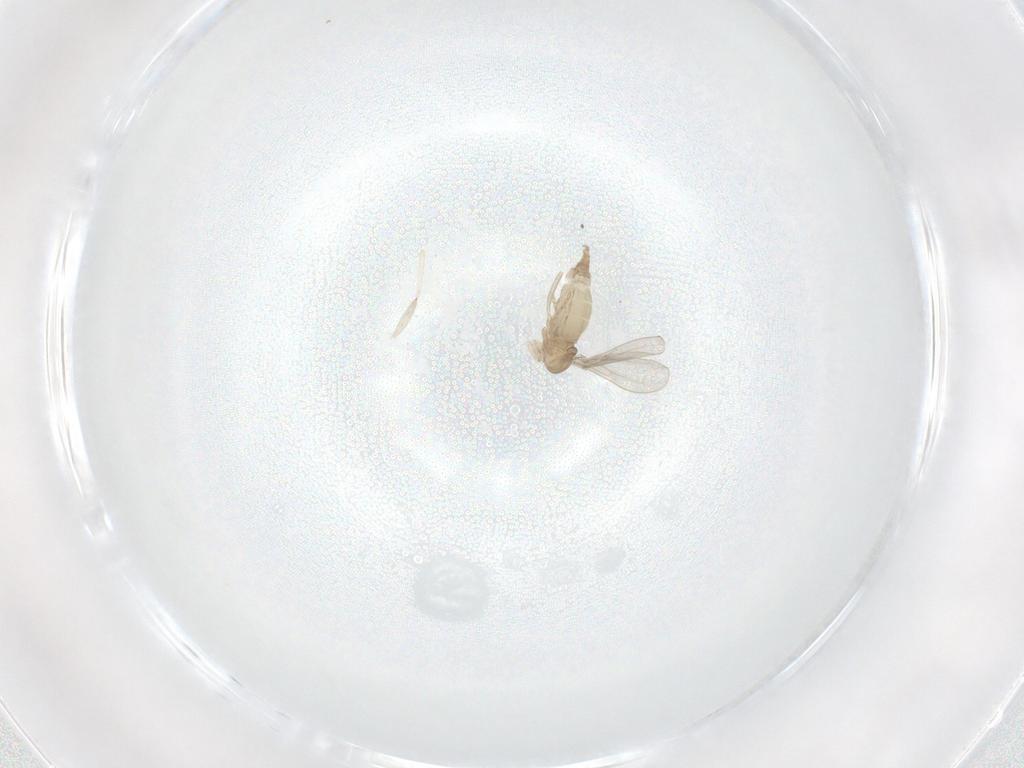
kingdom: Animalia
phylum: Arthropoda
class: Insecta
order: Diptera
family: Cecidomyiidae
